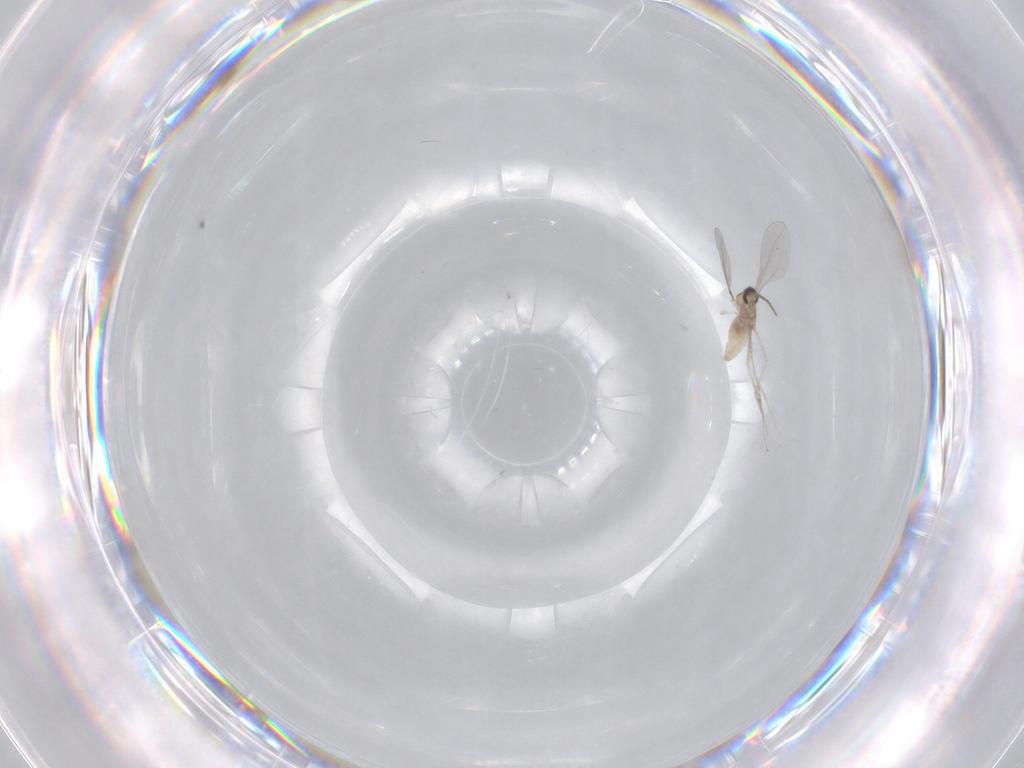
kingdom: Animalia
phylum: Arthropoda
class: Insecta
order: Diptera
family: Cecidomyiidae
